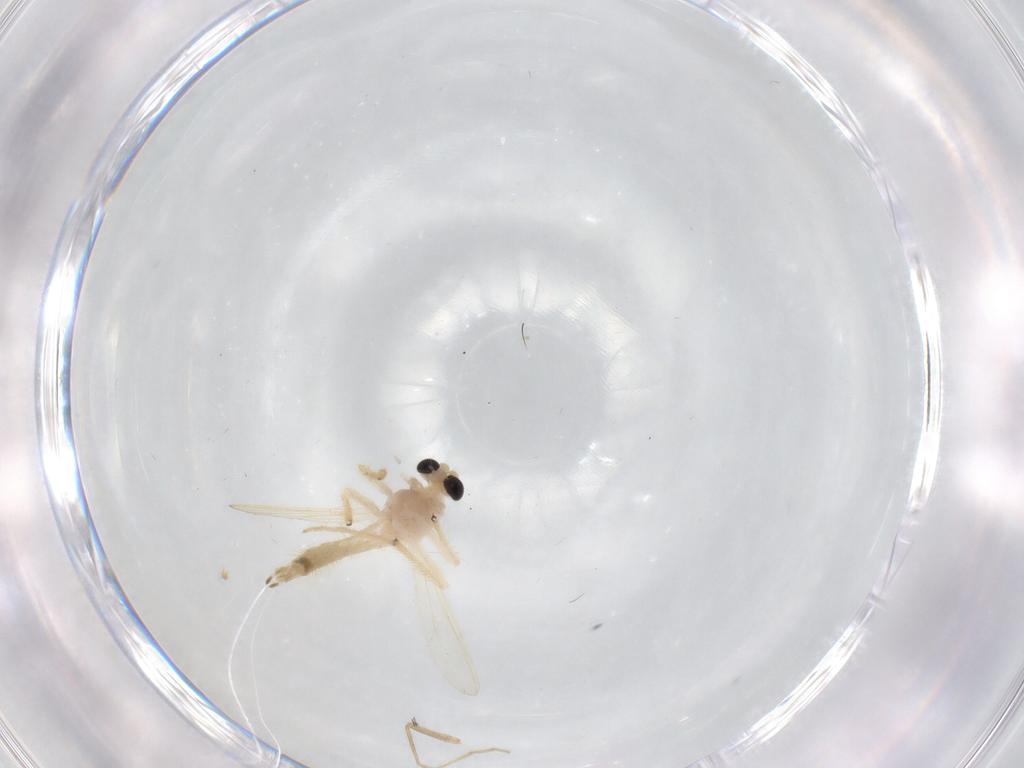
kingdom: Animalia
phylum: Arthropoda
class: Insecta
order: Diptera
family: Chironomidae
